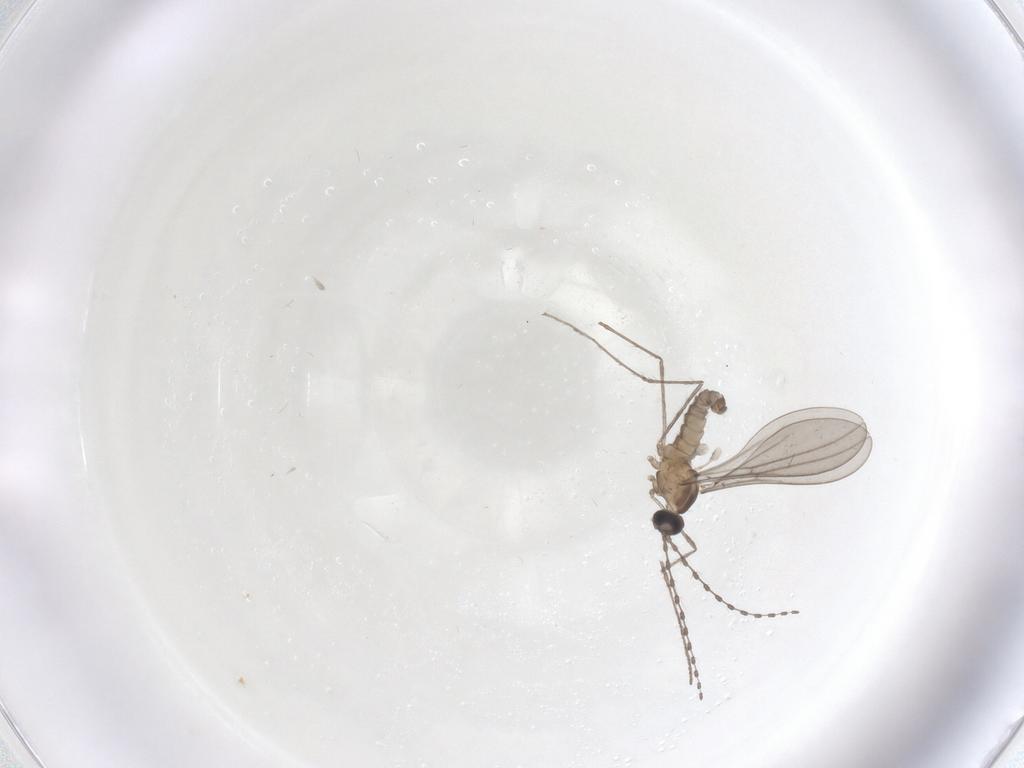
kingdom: Animalia
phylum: Arthropoda
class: Insecta
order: Diptera
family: Cecidomyiidae
